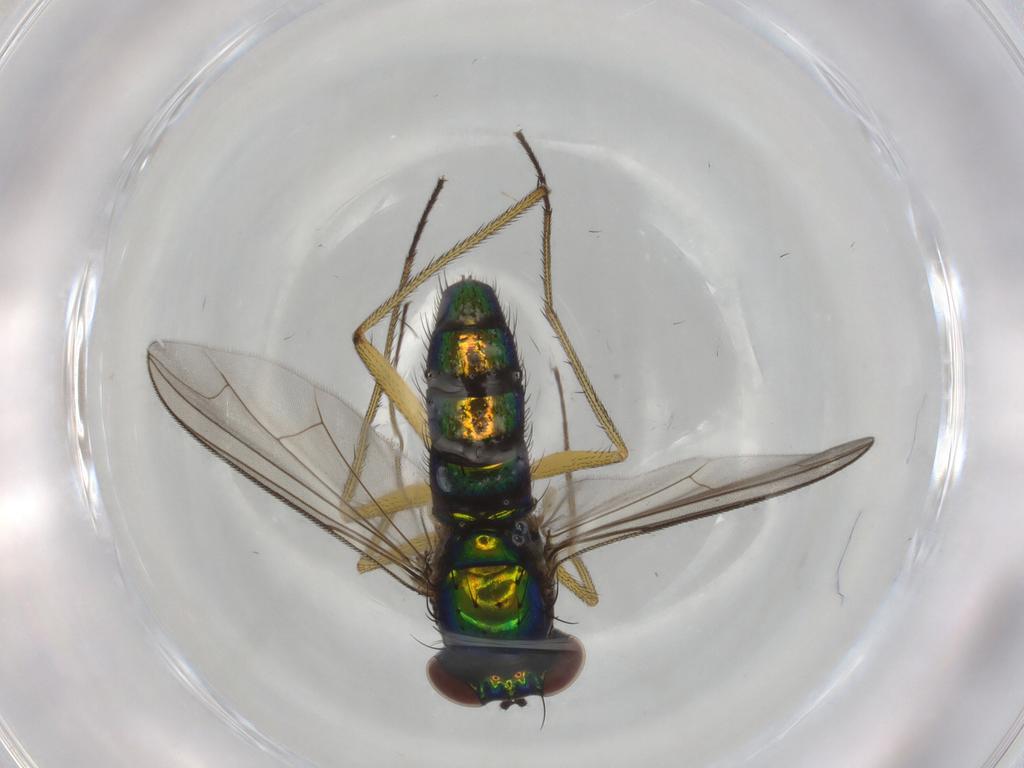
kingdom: Animalia
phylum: Arthropoda
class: Insecta
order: Diptera
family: Dolichopodidae
